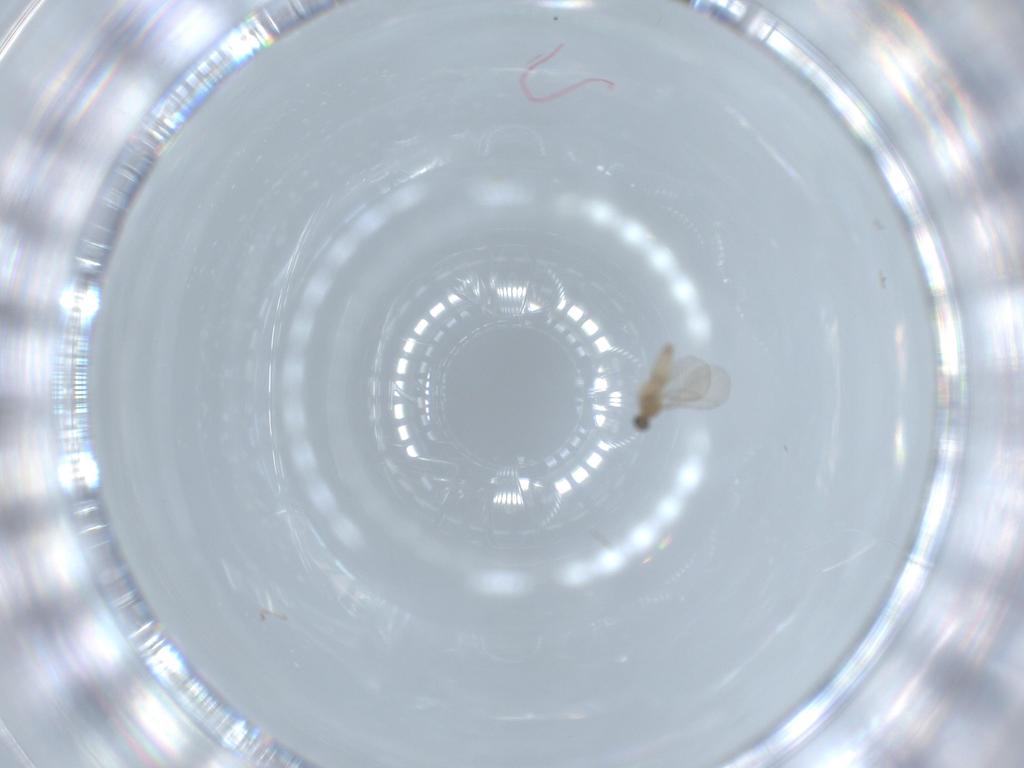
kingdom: Animalia
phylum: Arthropoda
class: Insecta
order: Diptera
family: Cecidomyiidae
